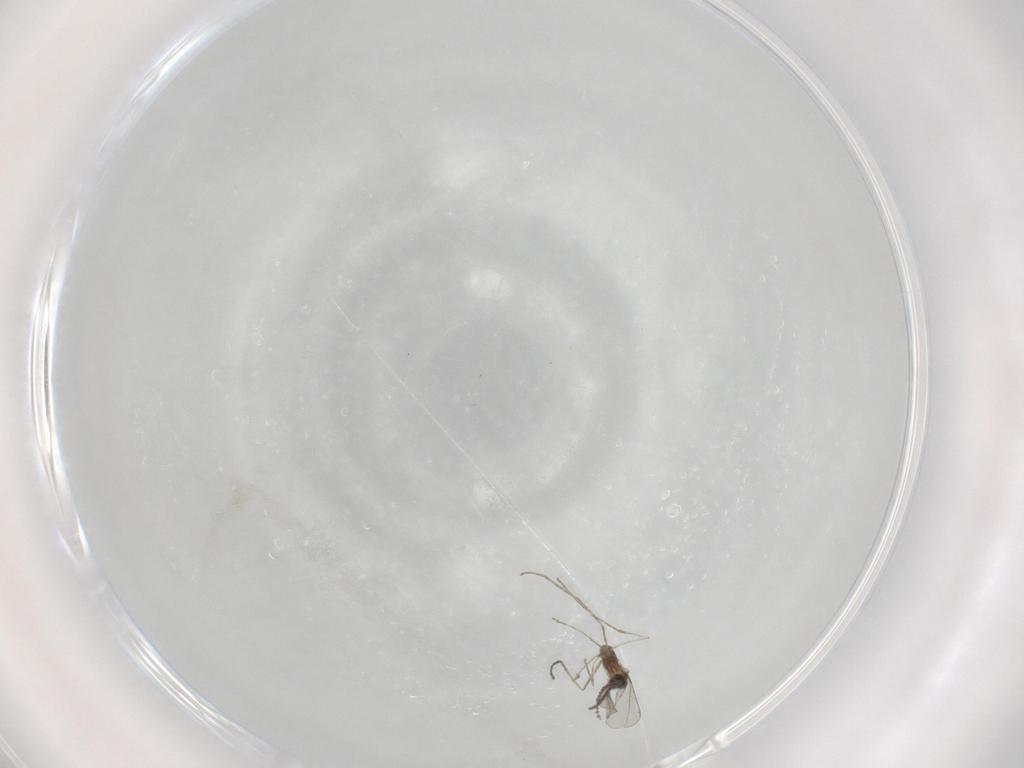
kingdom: Animalia
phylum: Arthropoda
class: Insecta
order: Diptera
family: Cecidomyiidae
